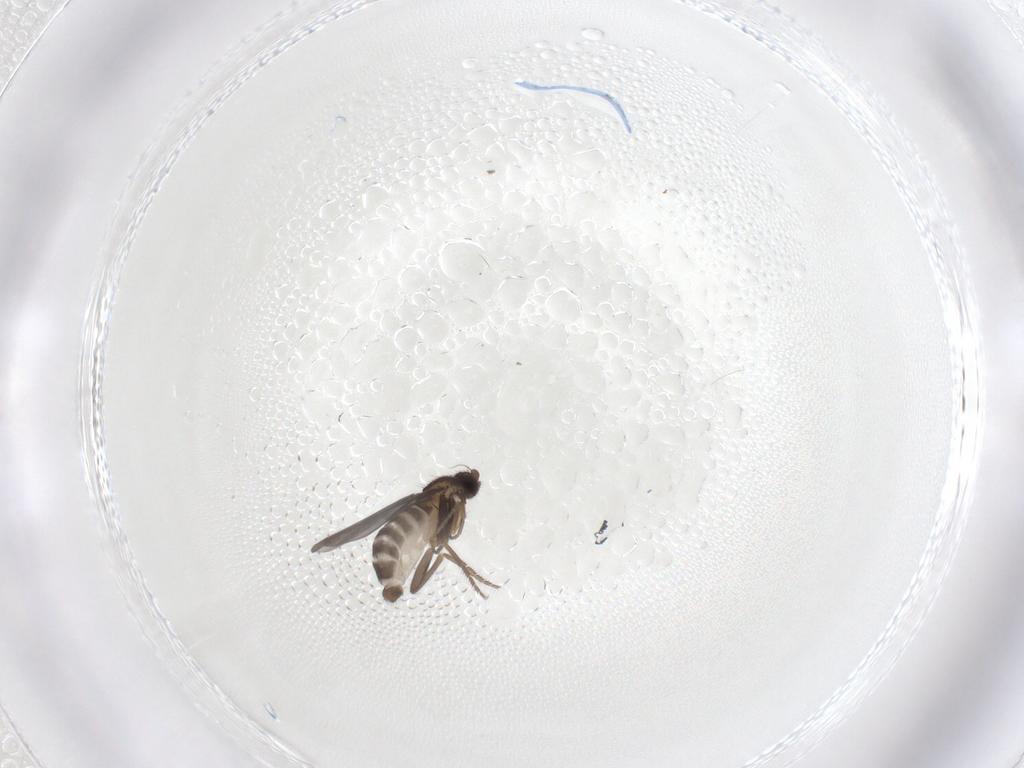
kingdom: Animalia
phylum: Arthropoda
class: Insecta
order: Diptera
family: Phoridae
